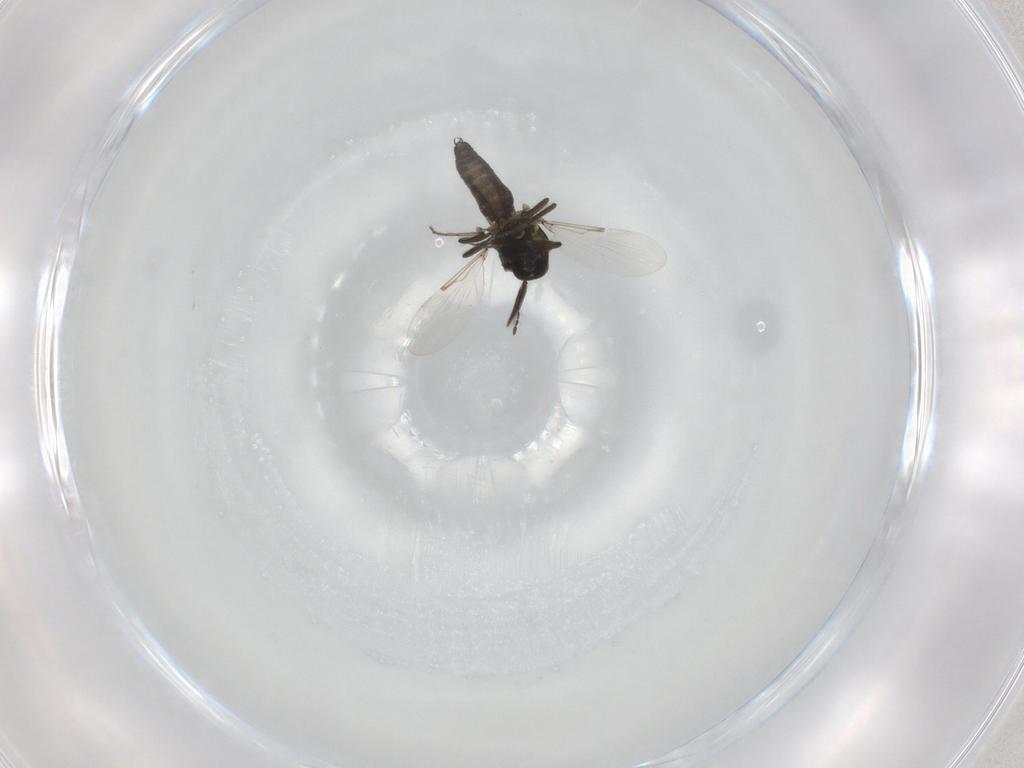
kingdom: Animalia
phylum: Arthropoda
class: Insecta
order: Diptera
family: Ceratopogonidae
